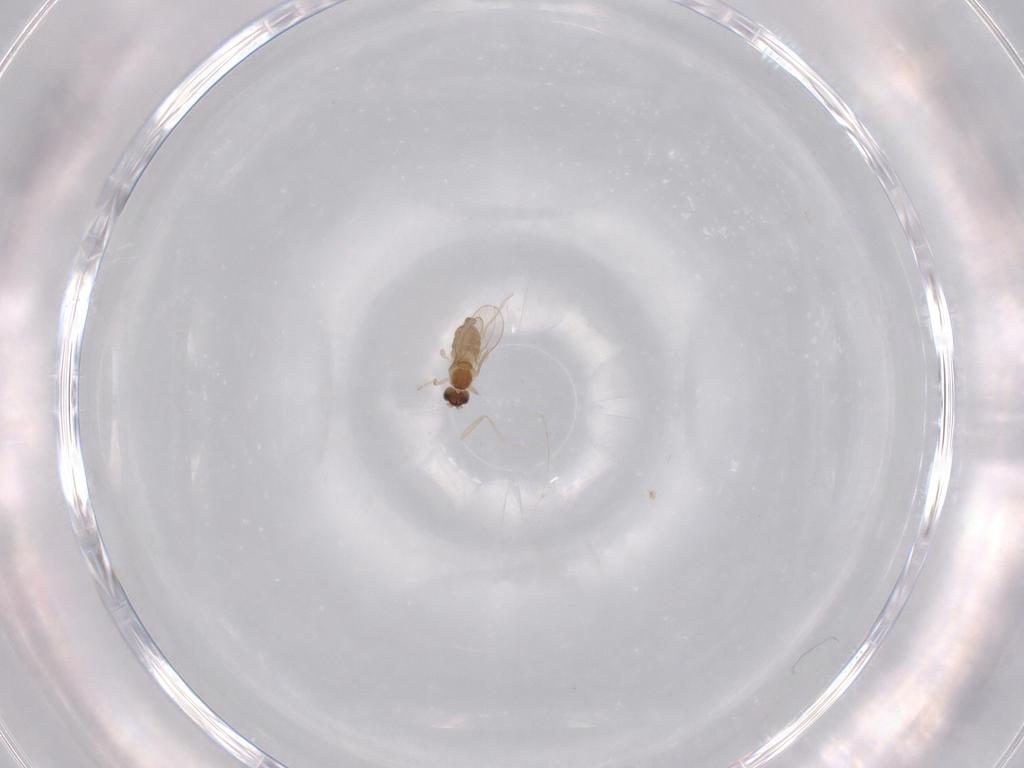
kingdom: Animalia
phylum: Arthropoda
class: Insecta
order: Diptera
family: Cecidomyiidae
